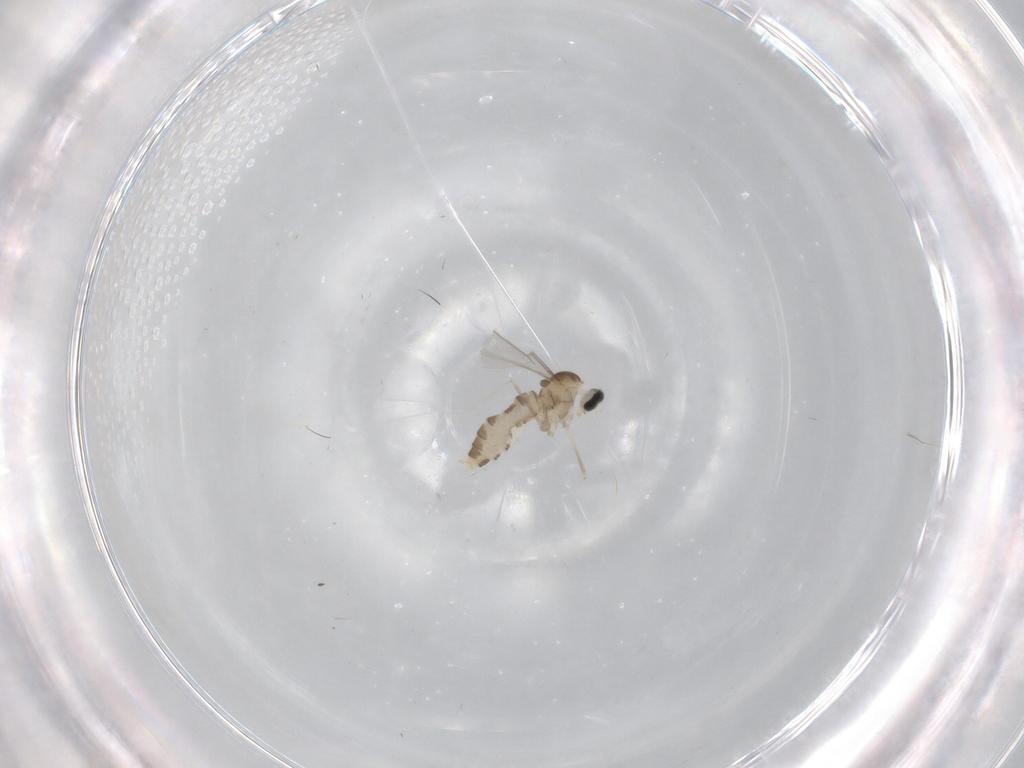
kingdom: Animalia
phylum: Arthropoda
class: Insecta
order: Diptera
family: Cecidomyiidae
